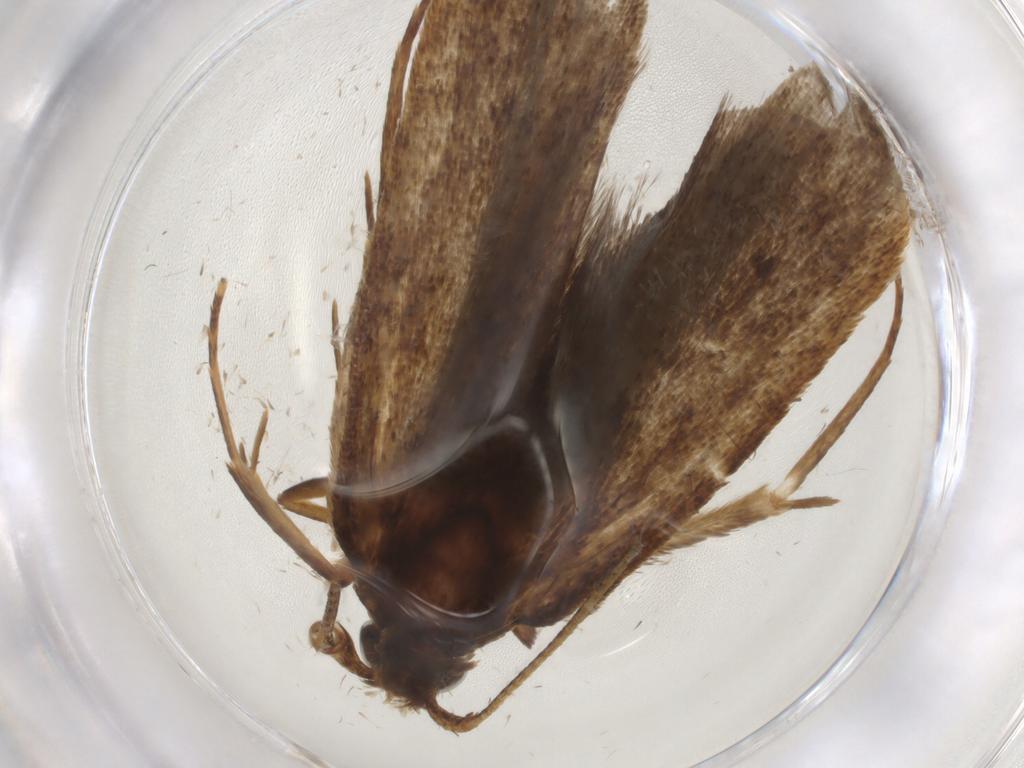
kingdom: Animalia
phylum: Arthropoda
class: Insecta
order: Lepidoptera
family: Autostichidae
